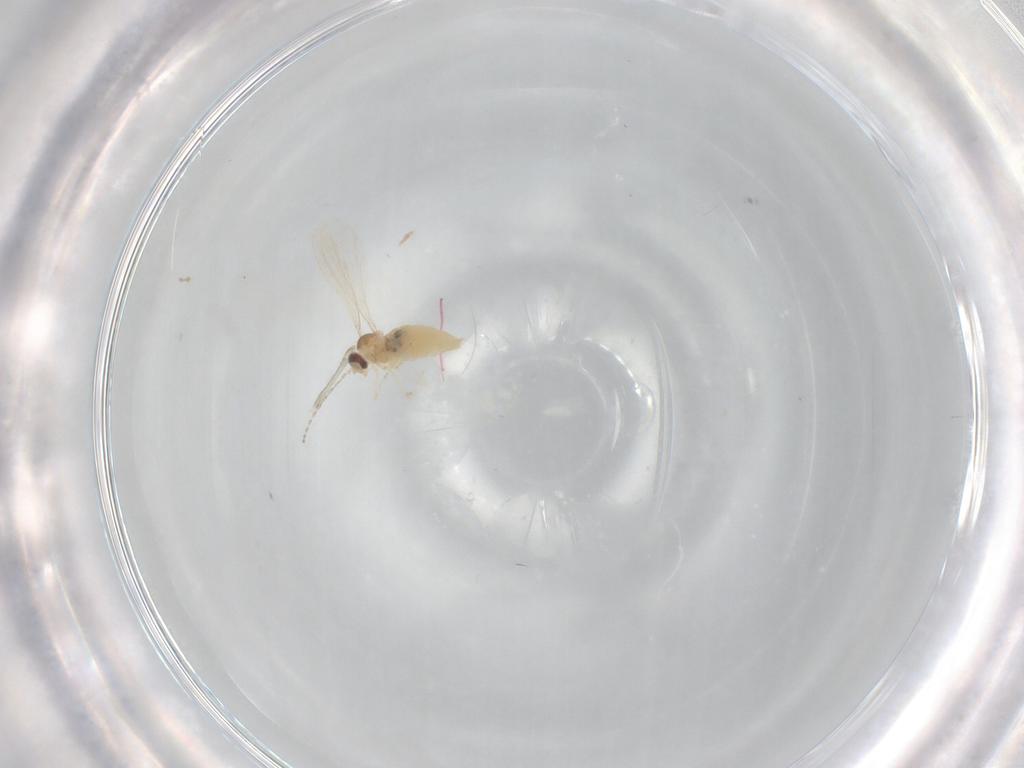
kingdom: Animalia
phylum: Arthropoda
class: Insecta
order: Diptera
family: Cecidomyiidae
